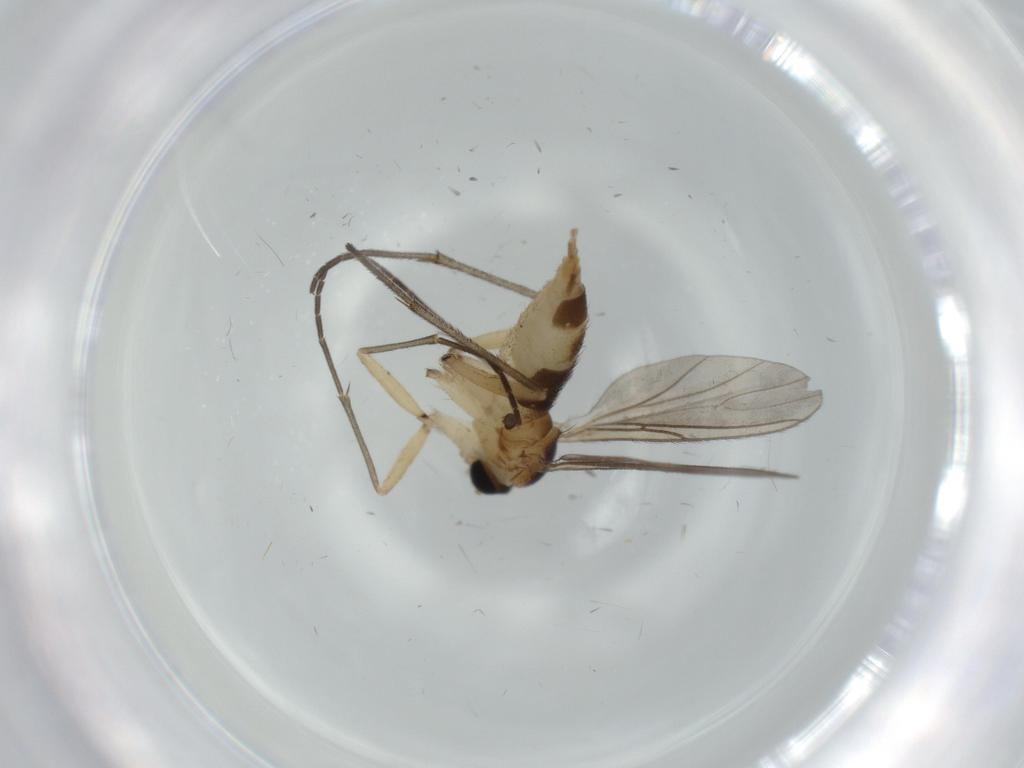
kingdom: Animalia
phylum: Arthropoda
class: Insecta
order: Diptera
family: Sciaridae
